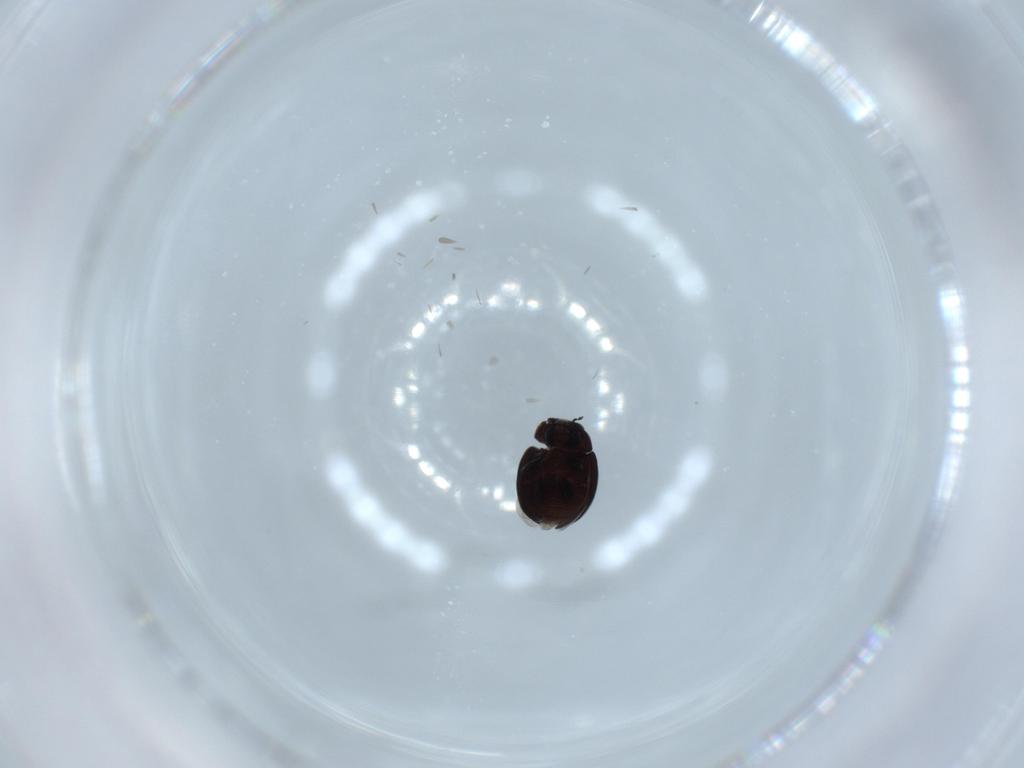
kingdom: Animalia
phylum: Arthropoda
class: Insecta
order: Coleoptera
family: Coccinellidae
